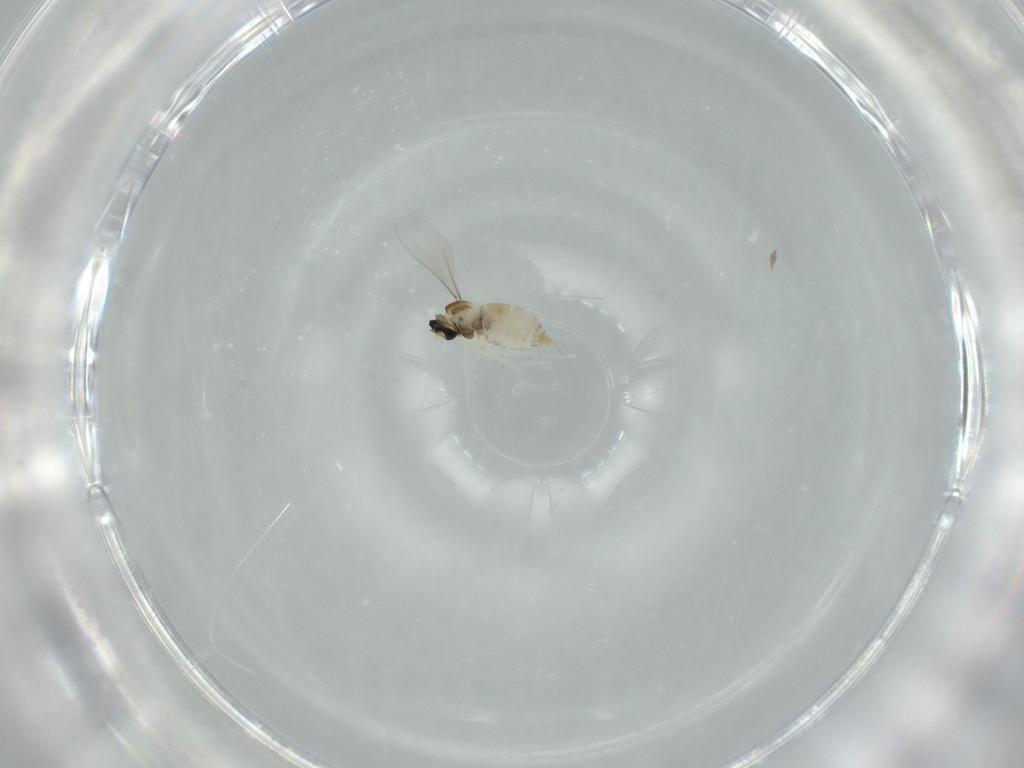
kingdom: Animalia
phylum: Arthropoda
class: Insecta
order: Diptera
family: Cecidomyiidae
